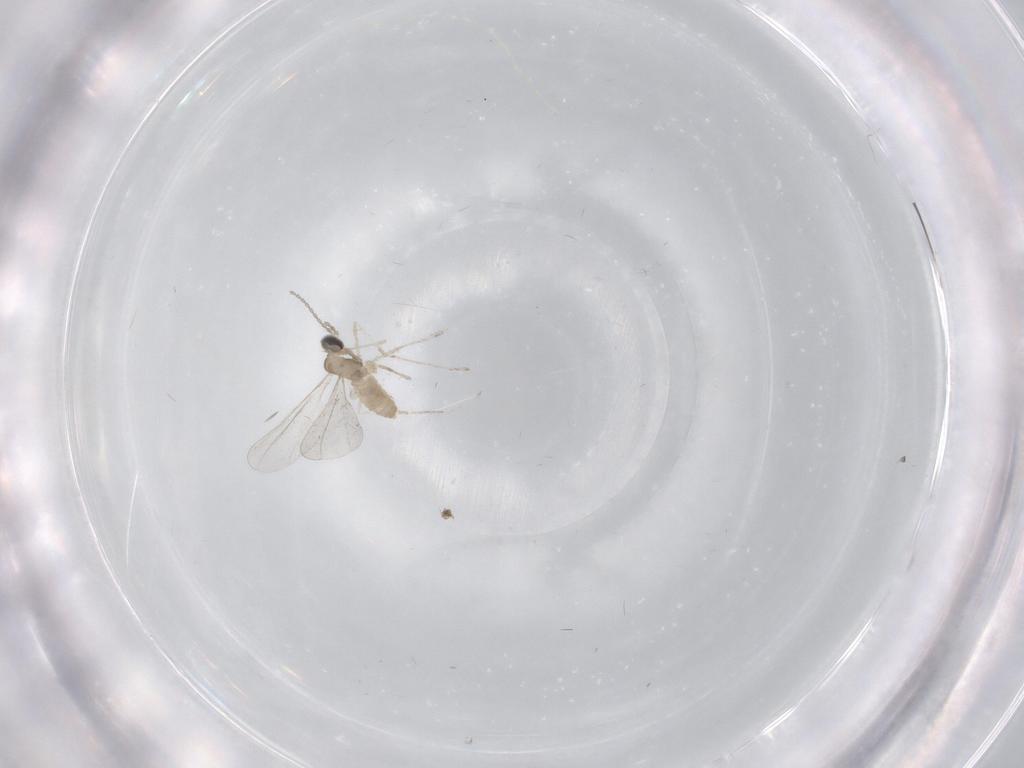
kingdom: Animalia
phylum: Arthropoda
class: Insecta
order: Diptera
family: Cecidomyiidae
